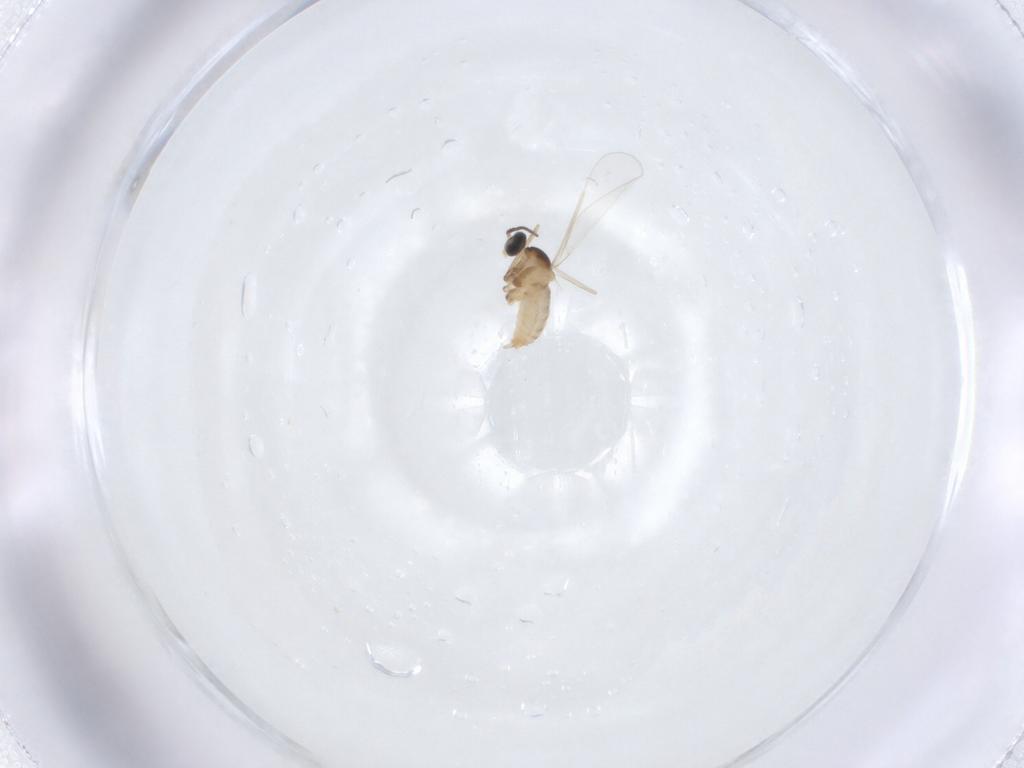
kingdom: Animalia
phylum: Arthropoda
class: Insecta
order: Diptera
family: Cecidomyiidae
